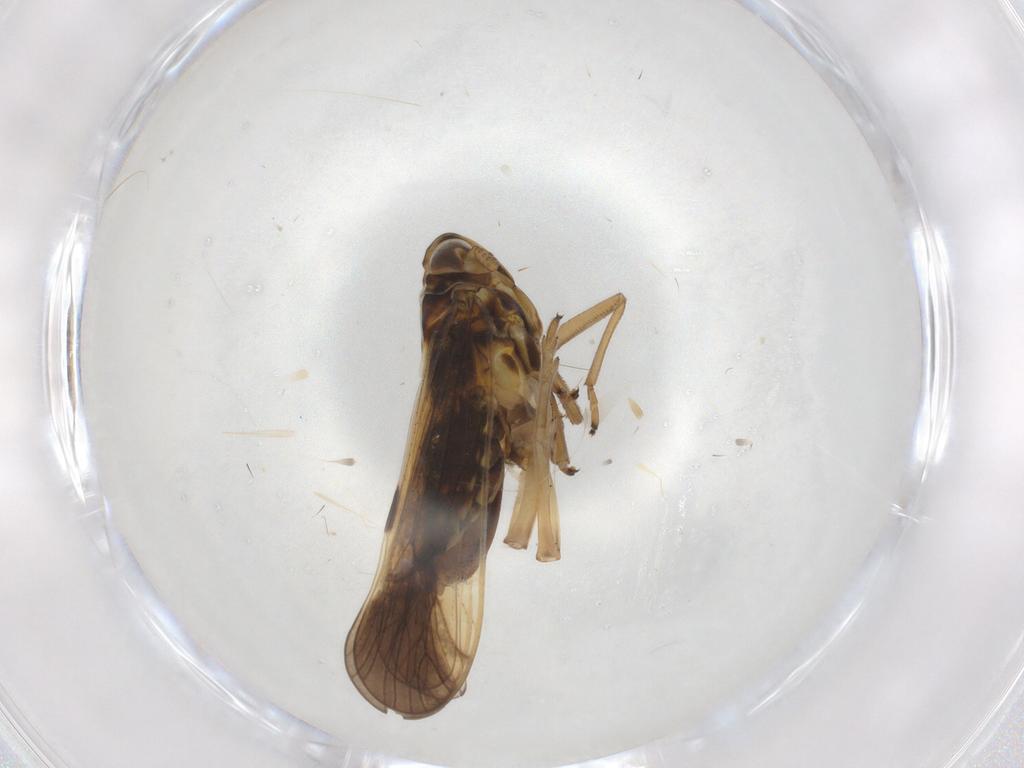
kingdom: Animalia
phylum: Arthropoda
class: Insecta
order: Hemiptera
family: Delphacidae
